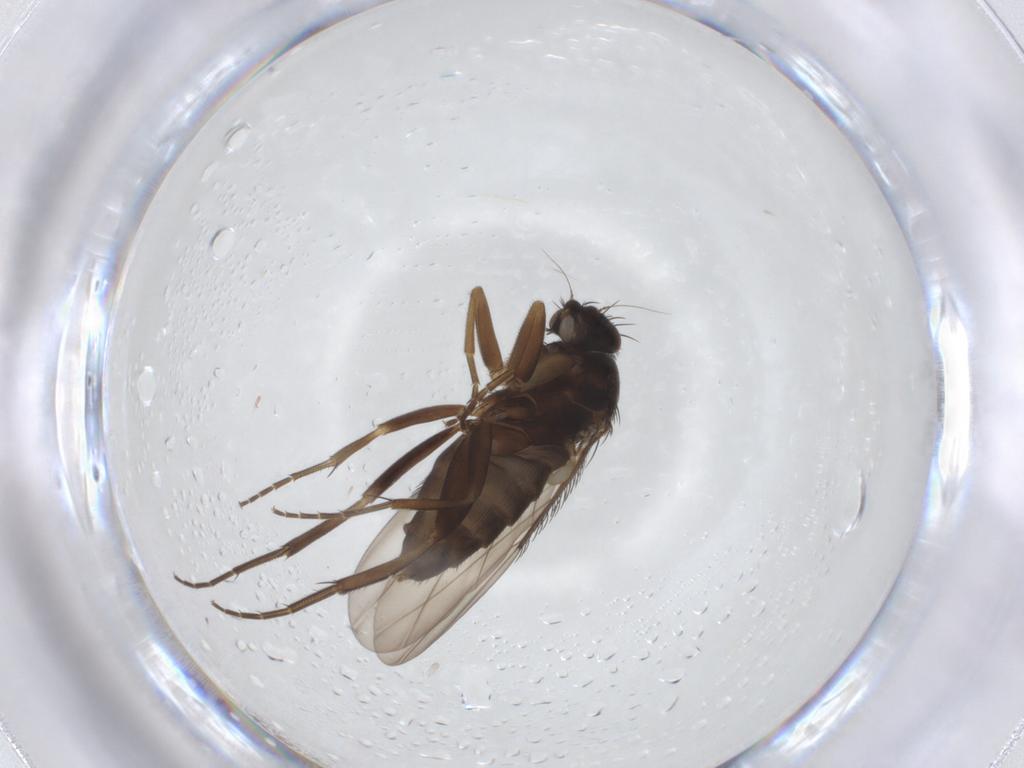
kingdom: Animalia
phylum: Arthropoda
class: Insecta
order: Diptera
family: Phoridae
